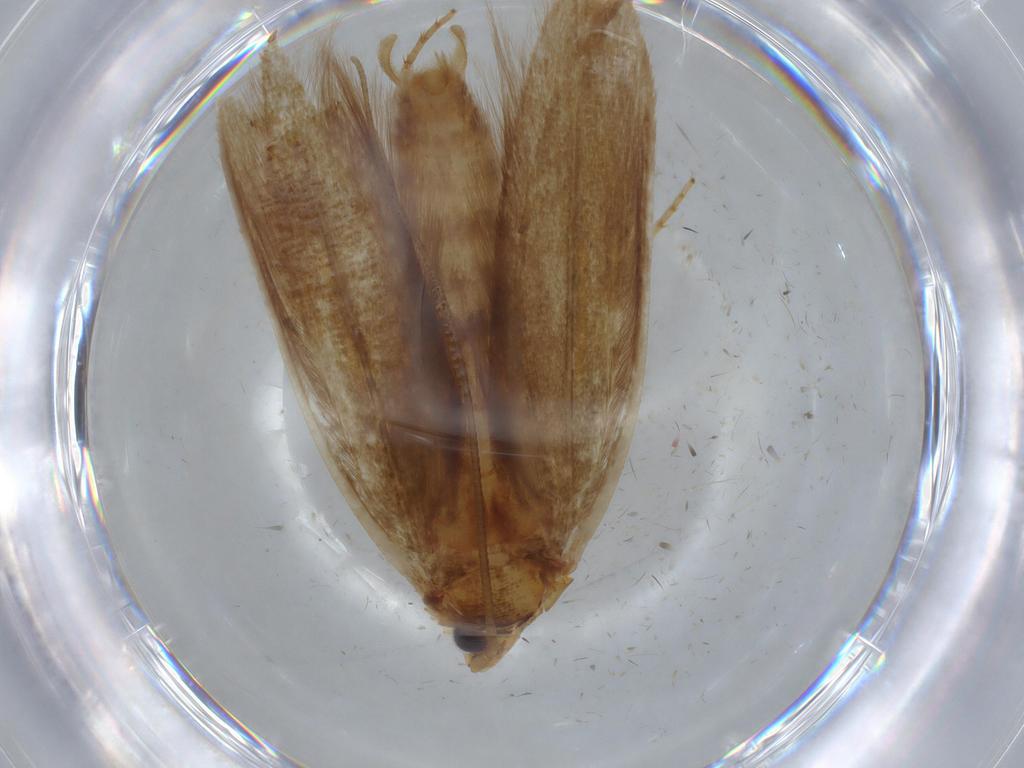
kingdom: Animalia
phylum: Arthropoda
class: Insecta
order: Lepidoptera
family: Tineidae
